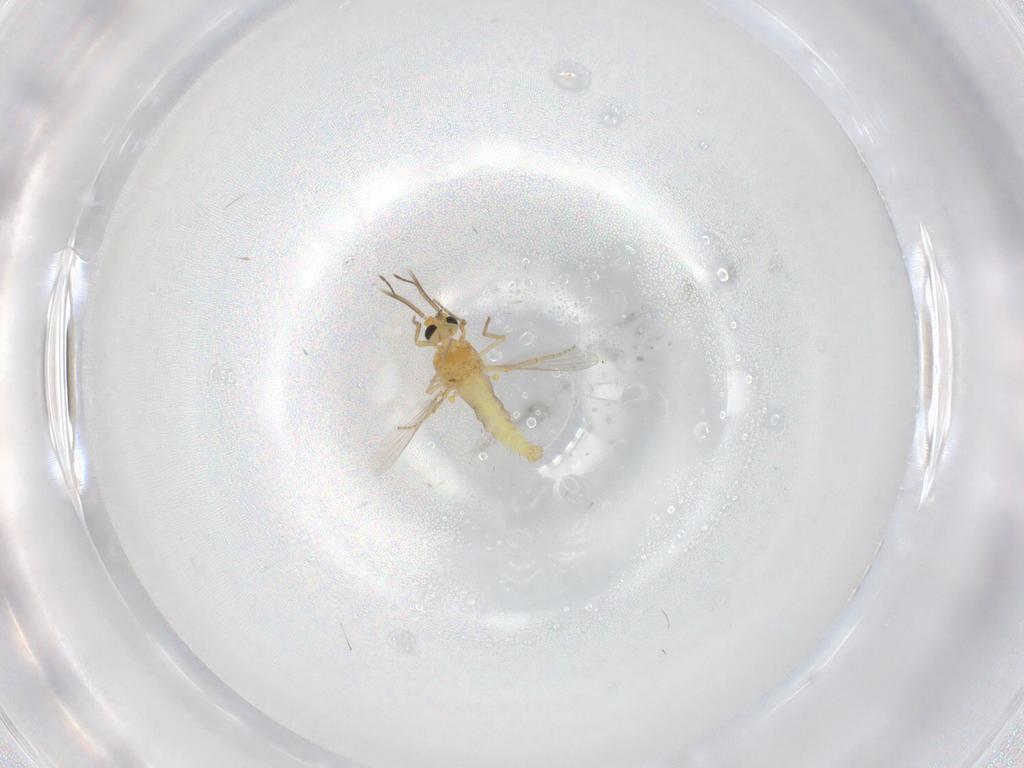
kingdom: Animalia
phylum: Arthropoda
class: Insecta
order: Diptera
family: Ceratopogonidae
